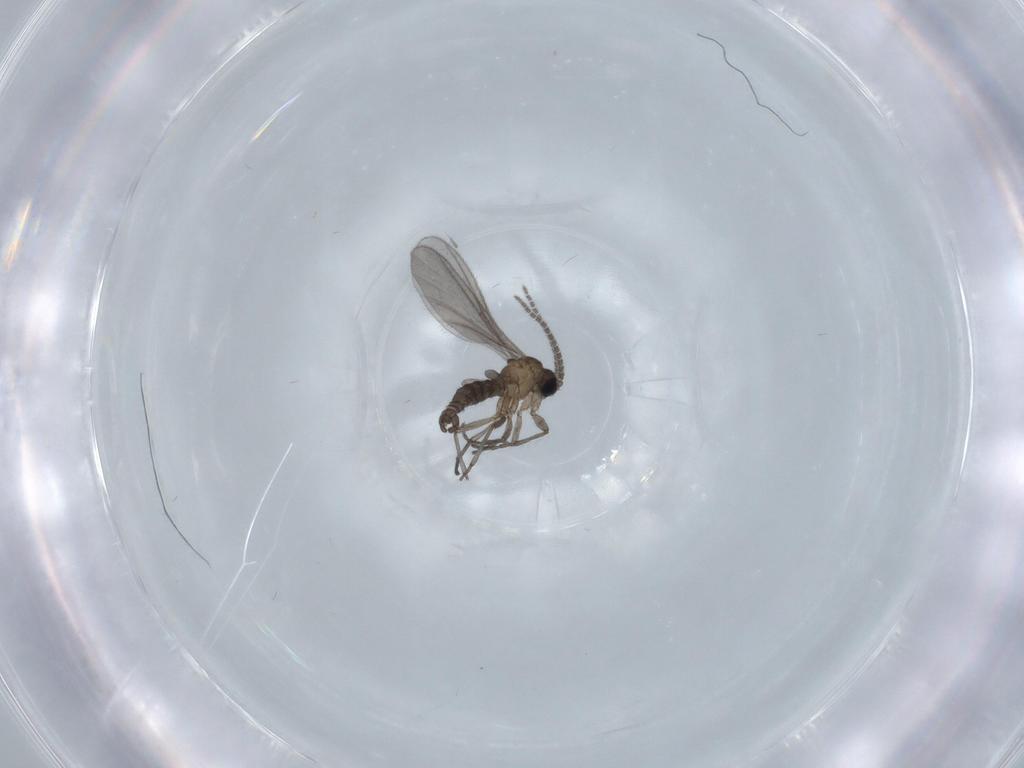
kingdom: Animalia
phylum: Arthropoda
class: Insecta
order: Diptera
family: Sciaridae
